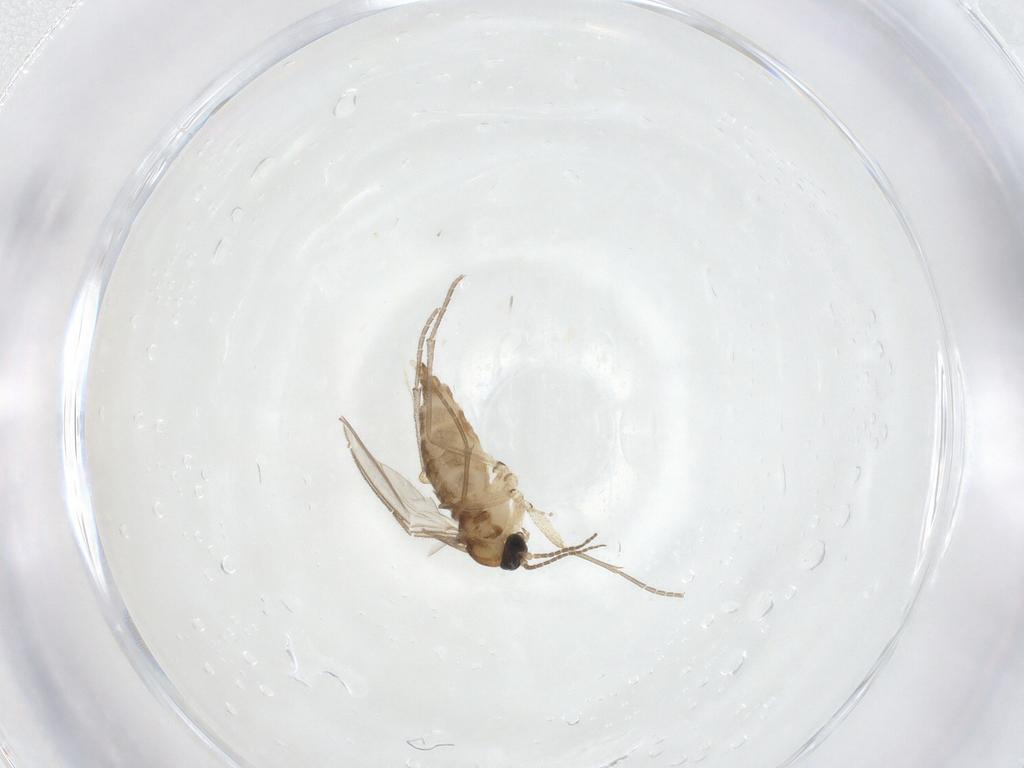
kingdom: Animalia
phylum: Arthropoda
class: Insecta
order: Diptera
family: Sciaridae
